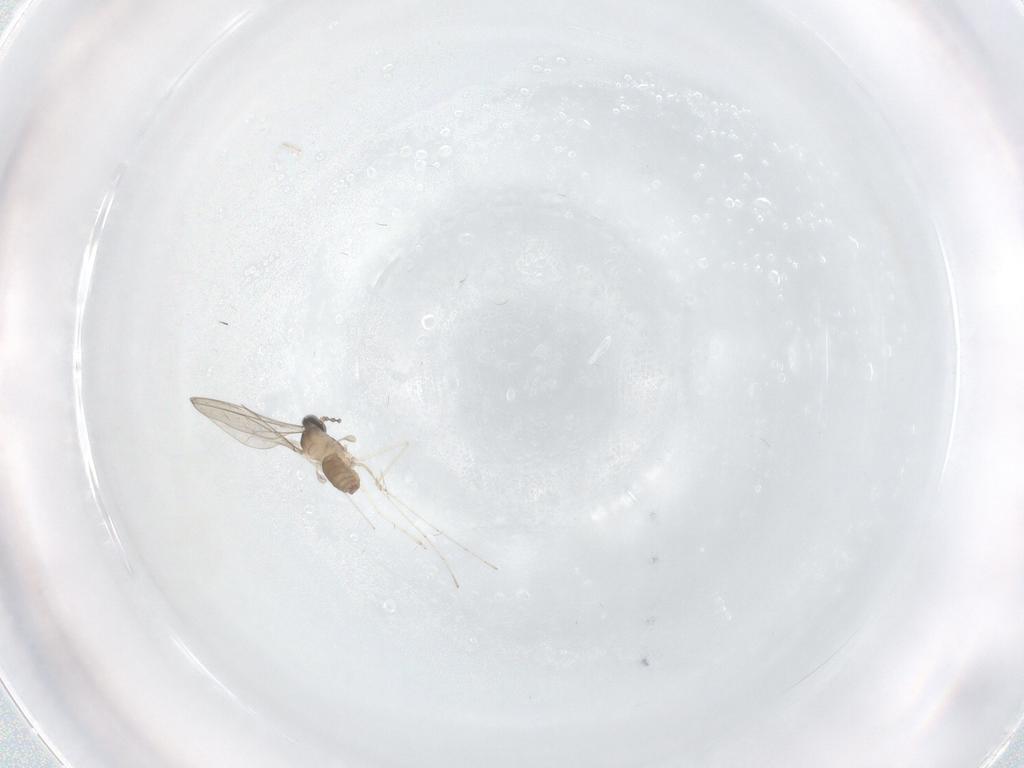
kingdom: Animalia
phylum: Arthropoda
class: Insecta
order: Diptera
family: Cecidomyiidae
